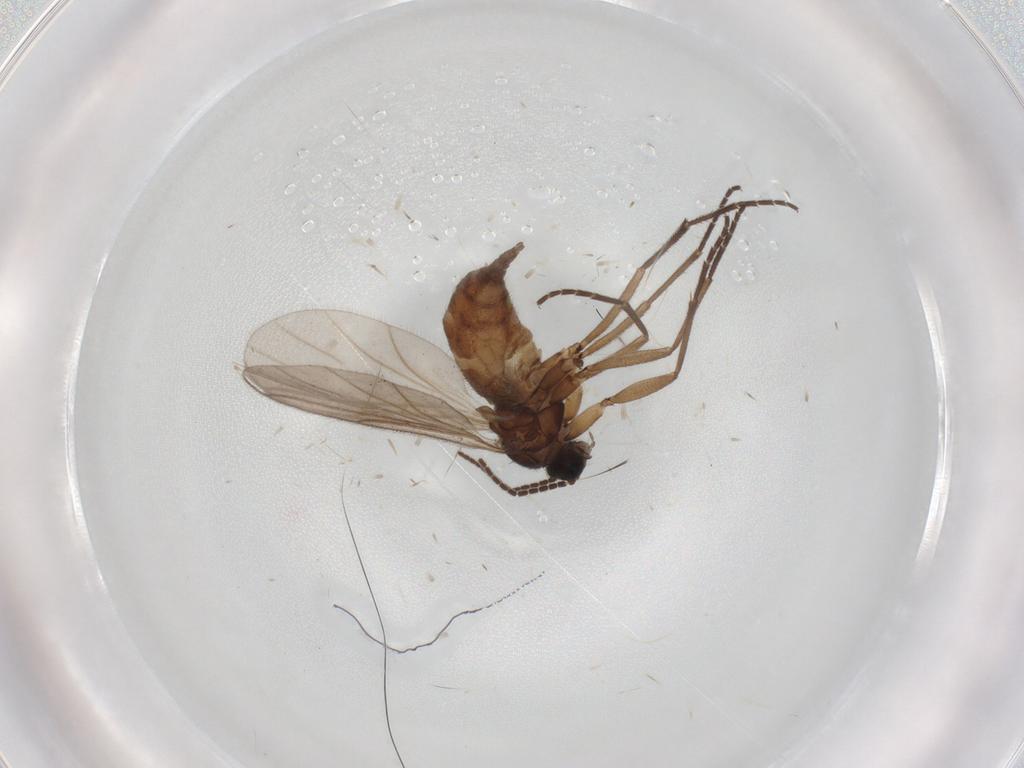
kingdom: Animalia
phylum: Arthropoda
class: Insecta
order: Diptera
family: Sciaridae
